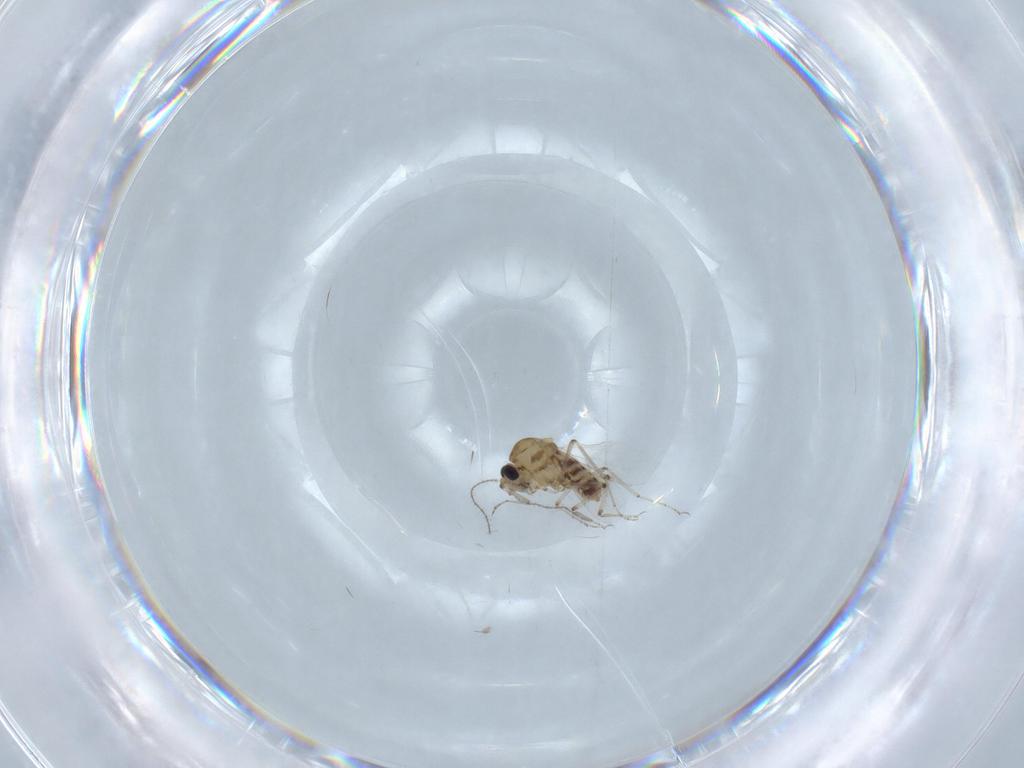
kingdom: Animalia
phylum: Arthropoda
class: Insecta
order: Diptera
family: Ceratopogonidae
